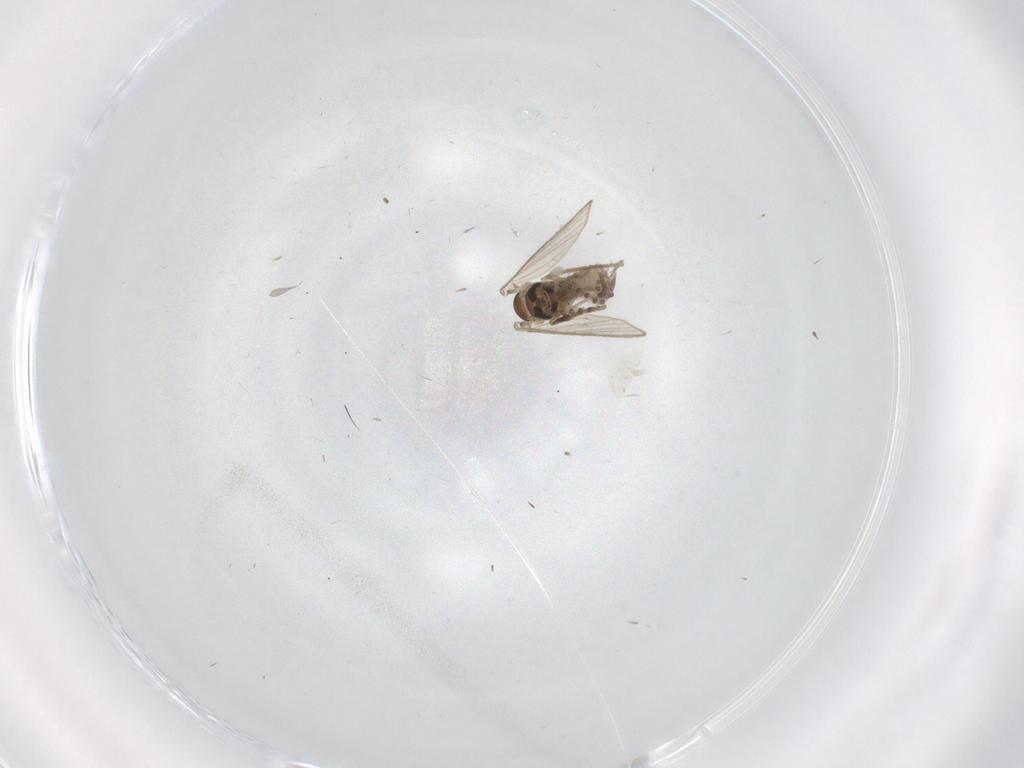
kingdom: Animalia
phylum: Arthropoda
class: Insecta
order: Diptera
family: Psychodidae
